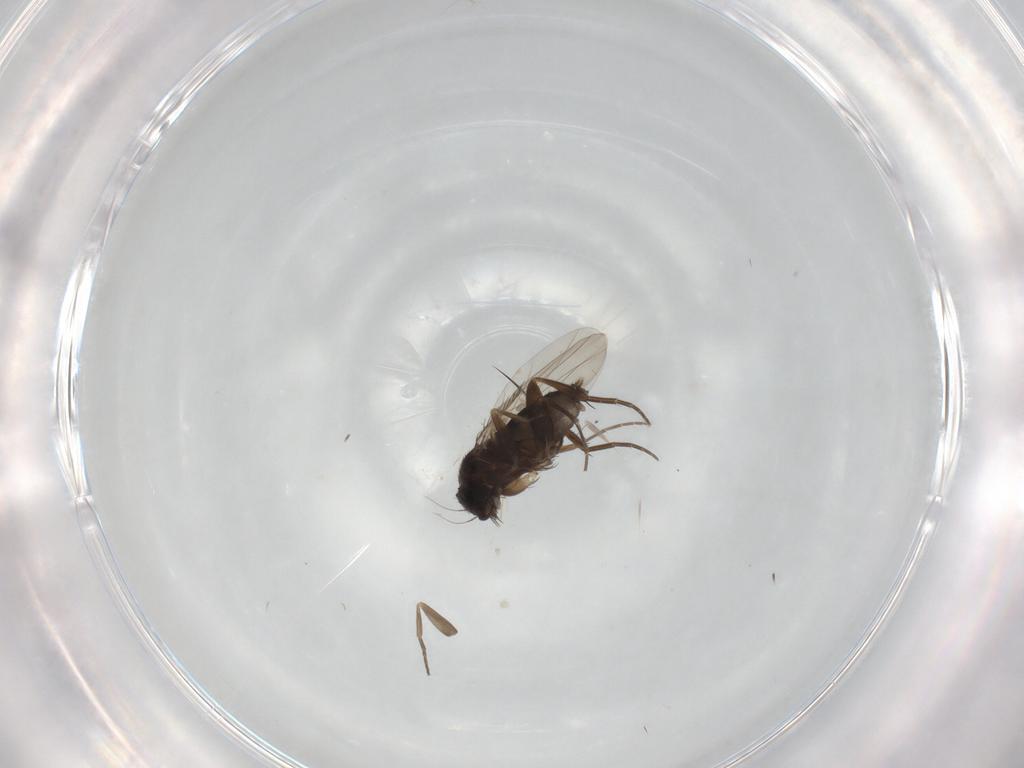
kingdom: Animalia
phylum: Arthropoda
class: Insecta
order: Diptera
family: Phoridae
